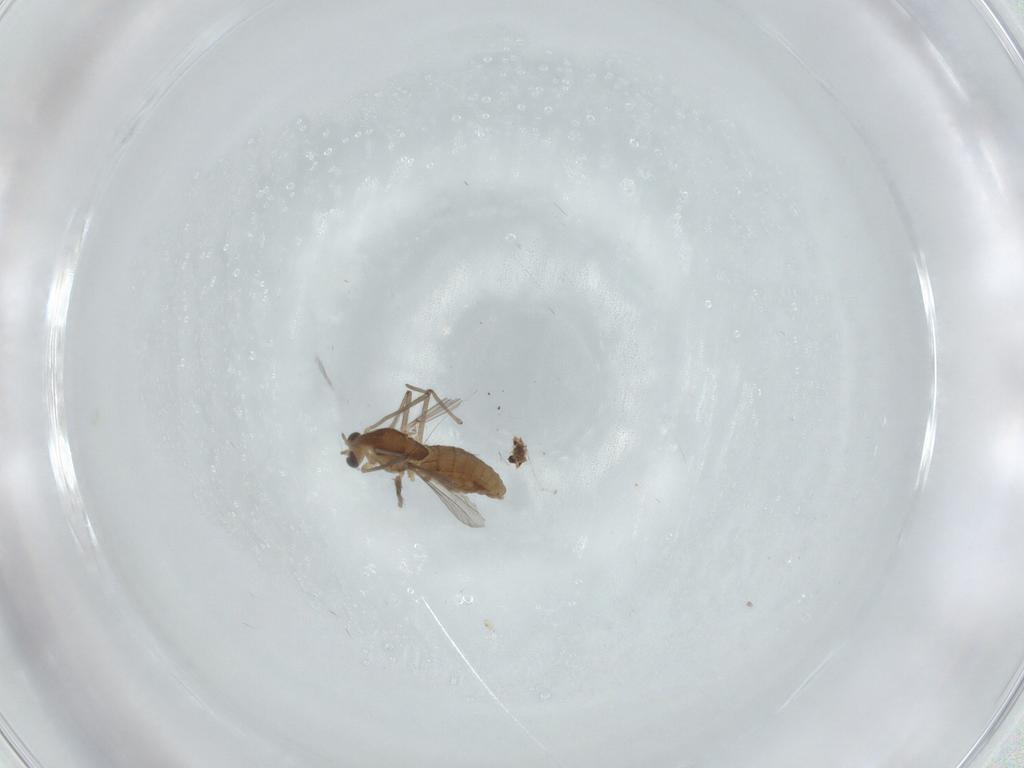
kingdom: Animalia
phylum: Arthropoda
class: Insecta
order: Diptera
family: Chironomidae
